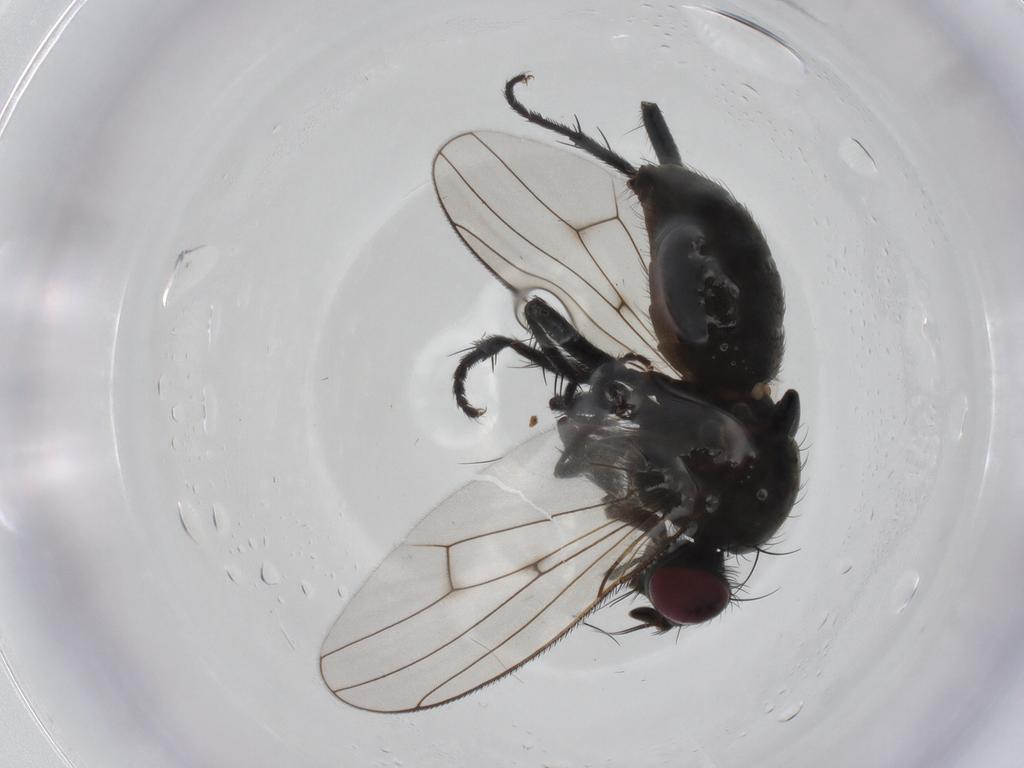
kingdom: Animalia
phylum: Arthropoda
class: Insecta
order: Diptera
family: Muscidae
